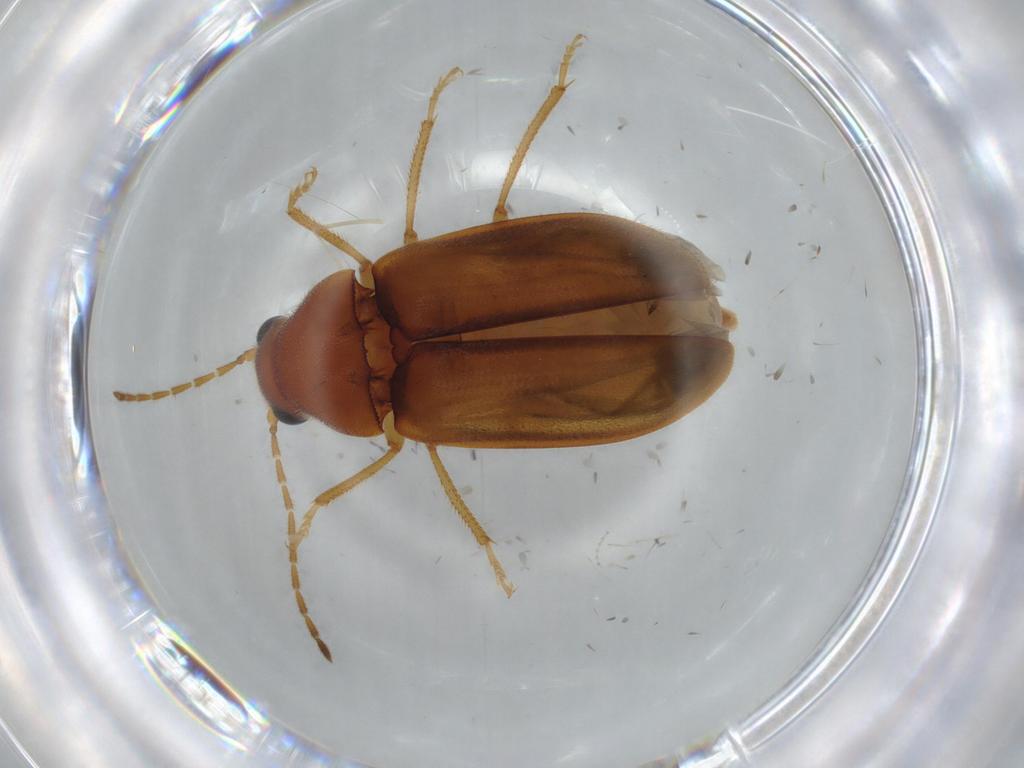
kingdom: Animalia
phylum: Arthropoda
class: Insecta
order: Coleoptera
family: Ptilodactylidae
